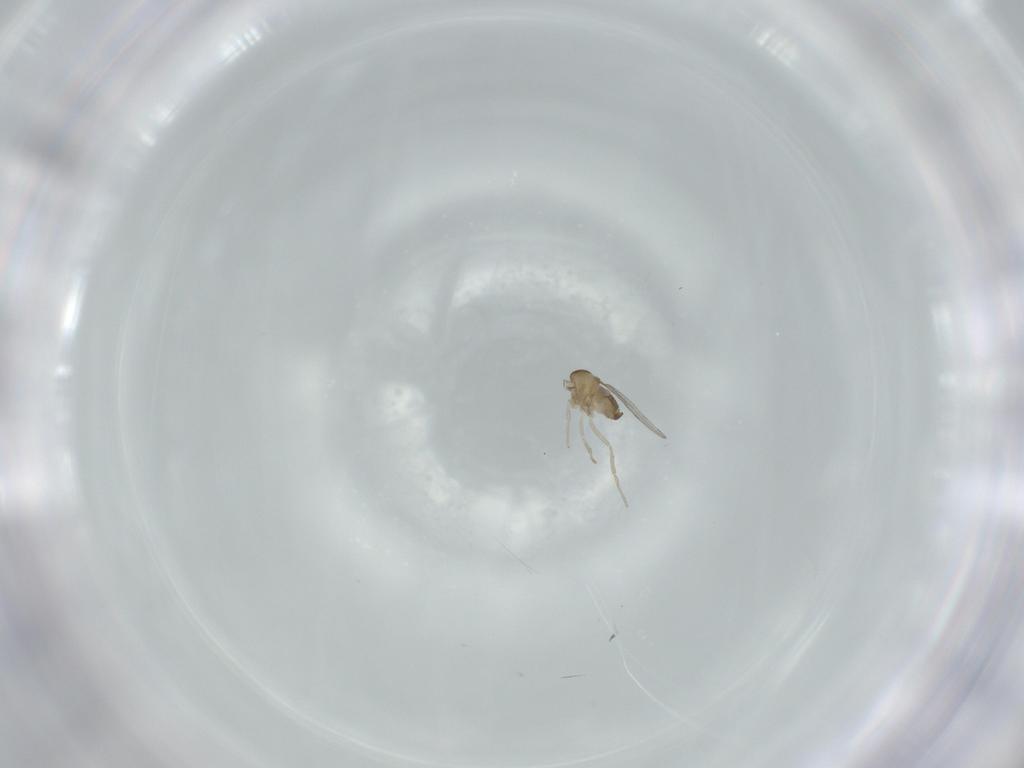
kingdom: Animalia
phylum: Arthropoda
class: Insecta
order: Diptera
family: Cecidomyiidae
